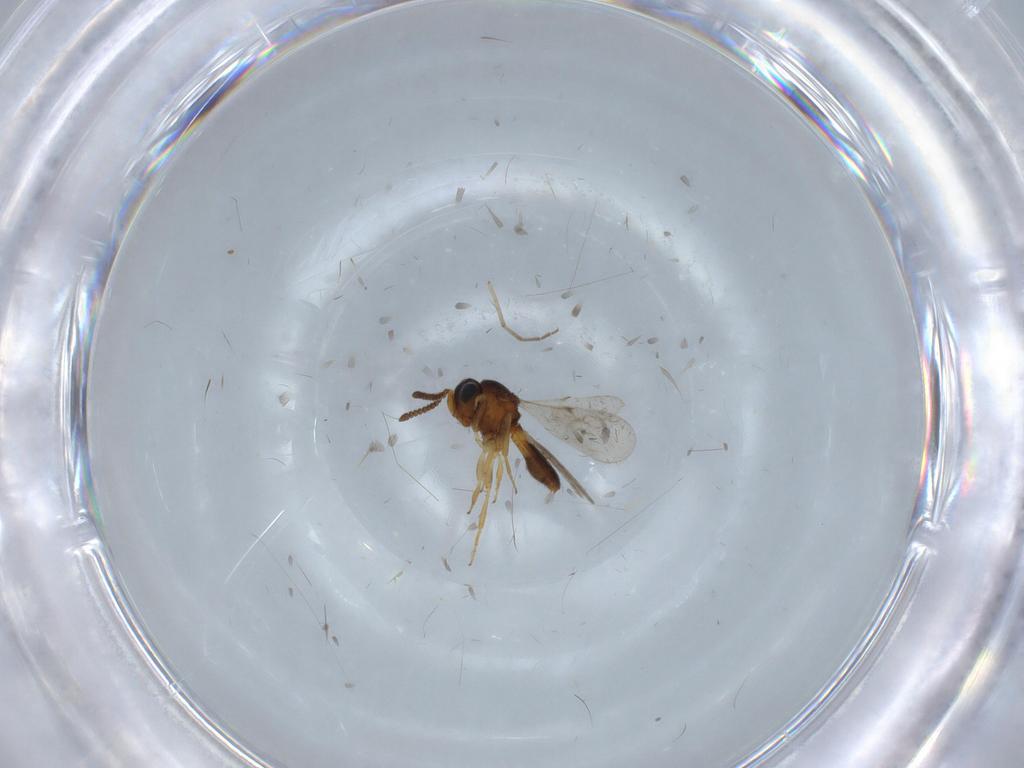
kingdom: Animalia
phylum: Arthropoda
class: Insecta
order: Hymenoptera
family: Scelionidae
